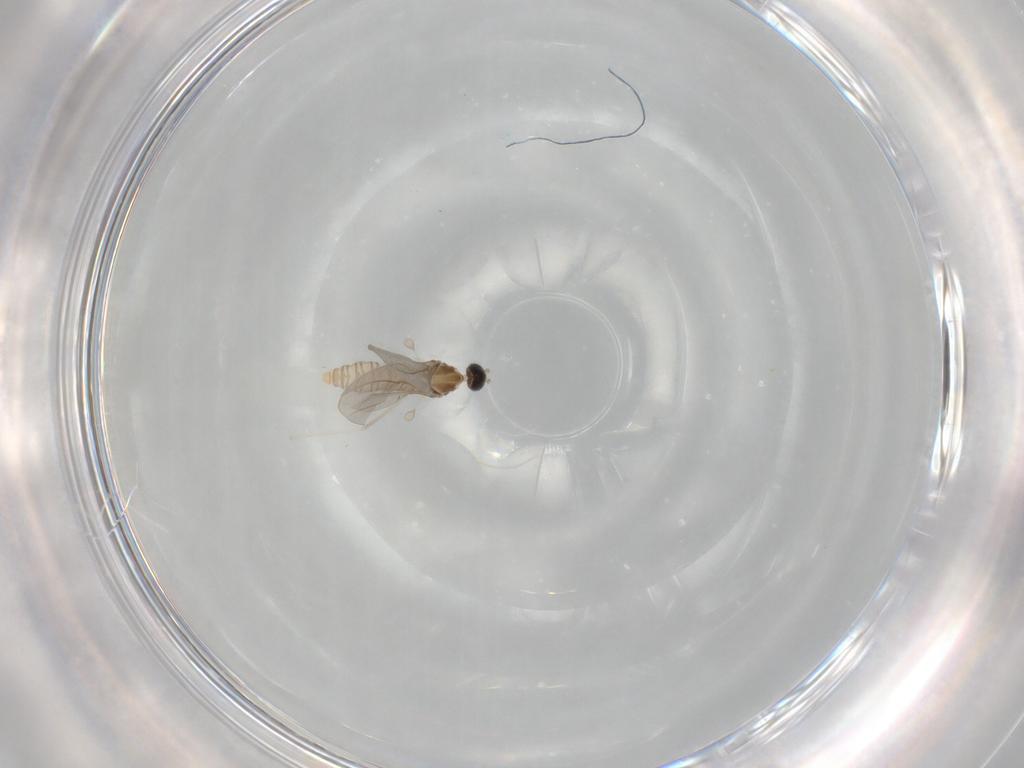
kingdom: Animalia
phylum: Arthropoda
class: Insecta
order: Diptera
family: Cecidomyiidae
